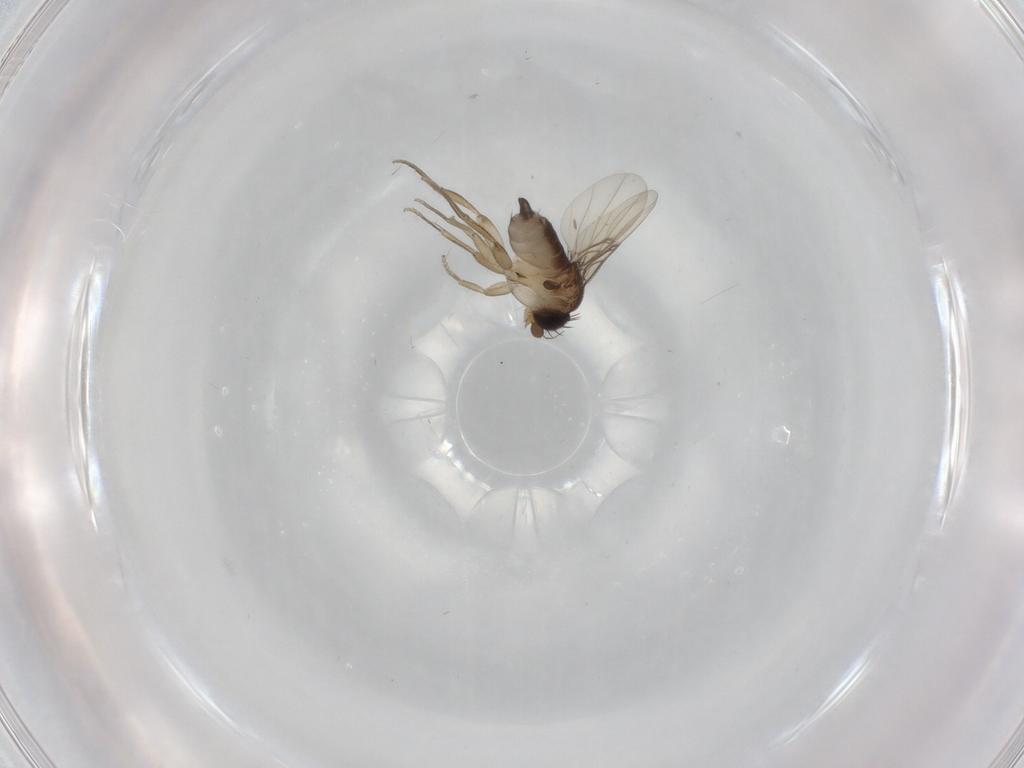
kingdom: Animalia
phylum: Arthropoda
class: Insecta
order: Diptera
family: Sciaridae
